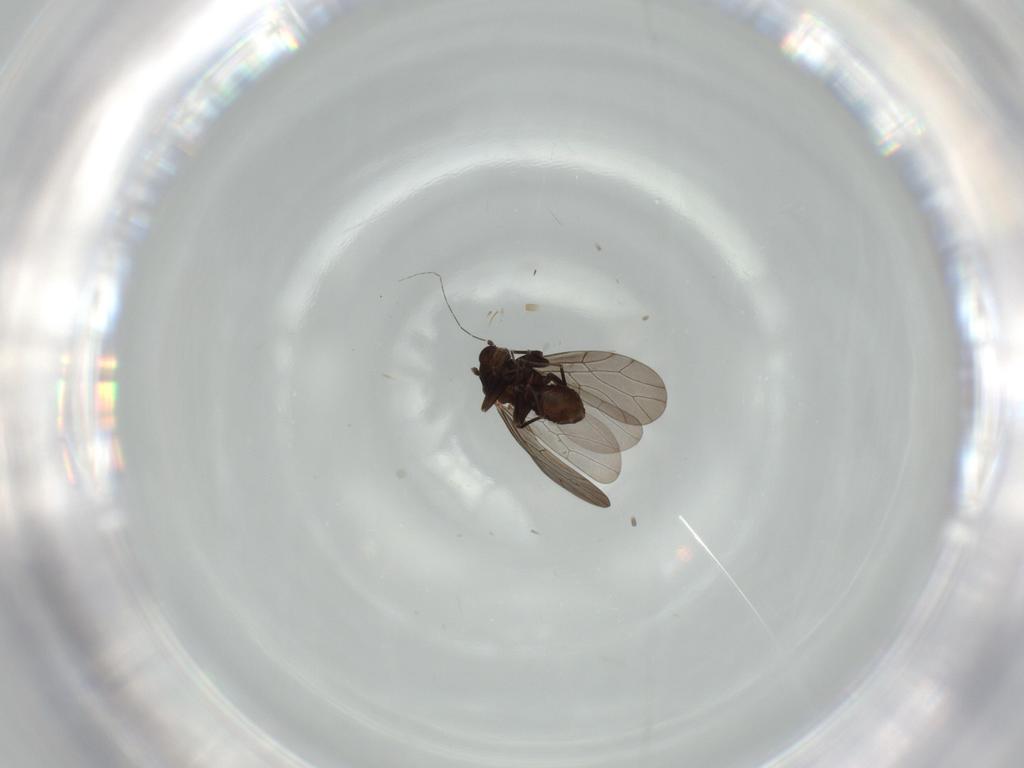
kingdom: Animalia
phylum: Arthropoda
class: Insecta
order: Psocodea
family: Lepidopsocidae
